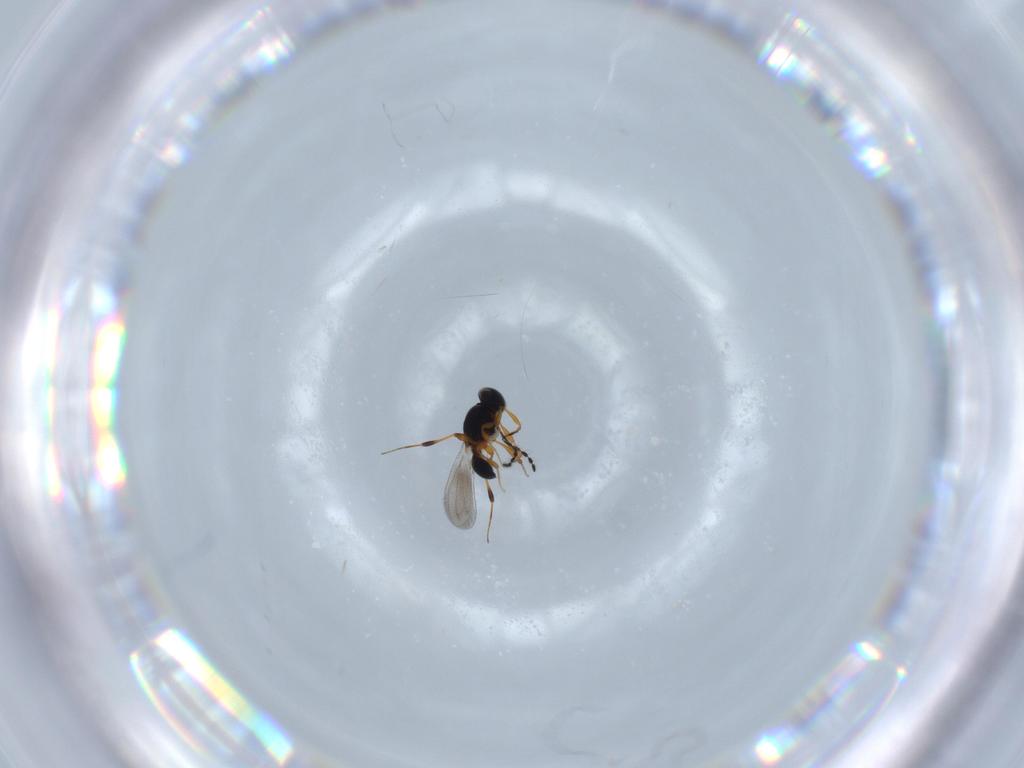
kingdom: Animalia
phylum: Arthropoda
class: Insecta
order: Hymenoptera
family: Platygastridae
